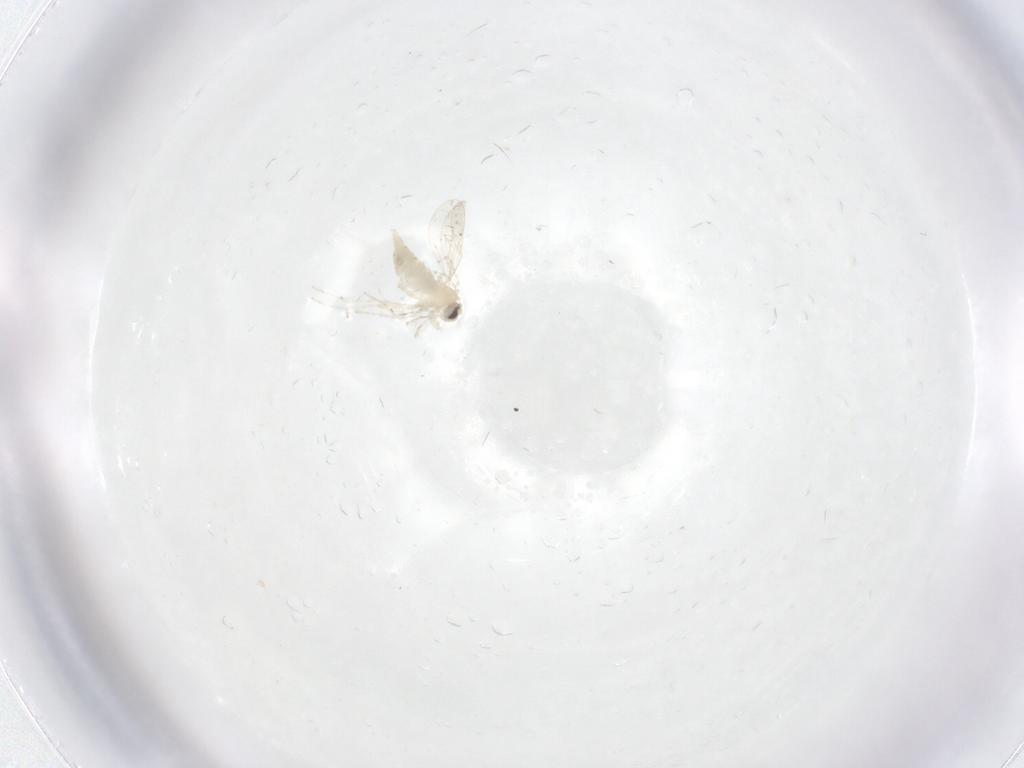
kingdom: Animalia
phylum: Arthropoda
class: Insecta
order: Diptera
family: Cecidomyiidae
